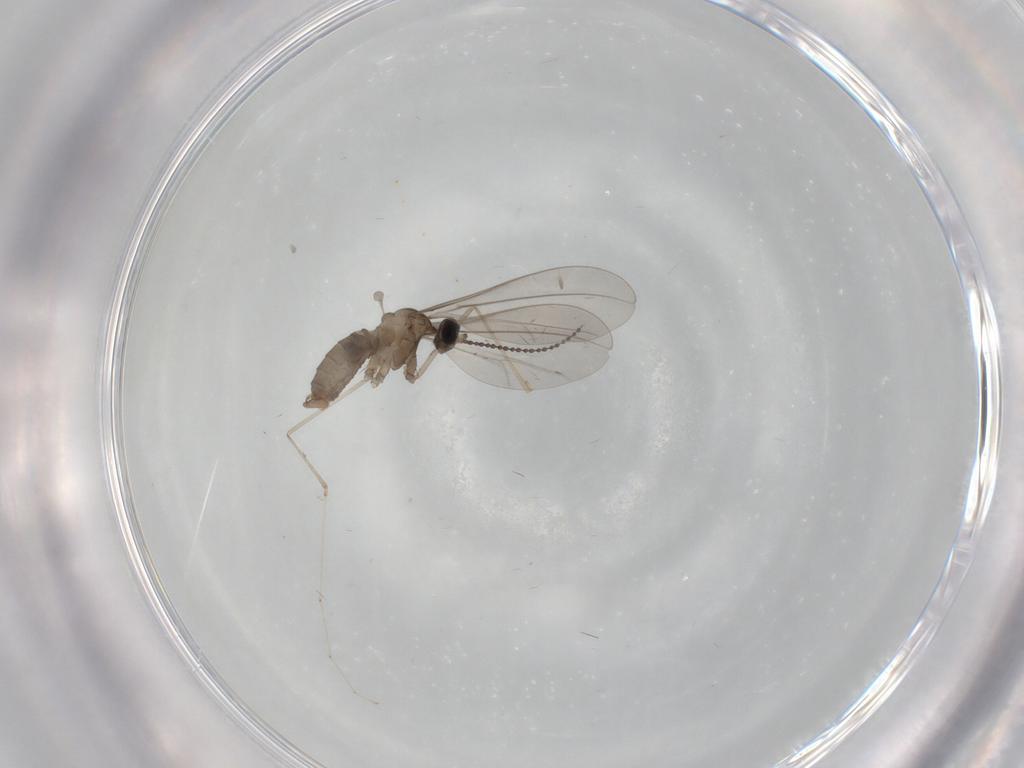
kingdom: Animalia
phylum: Arthropoda
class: Insecta
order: Diptera
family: Cecidomyiidae
